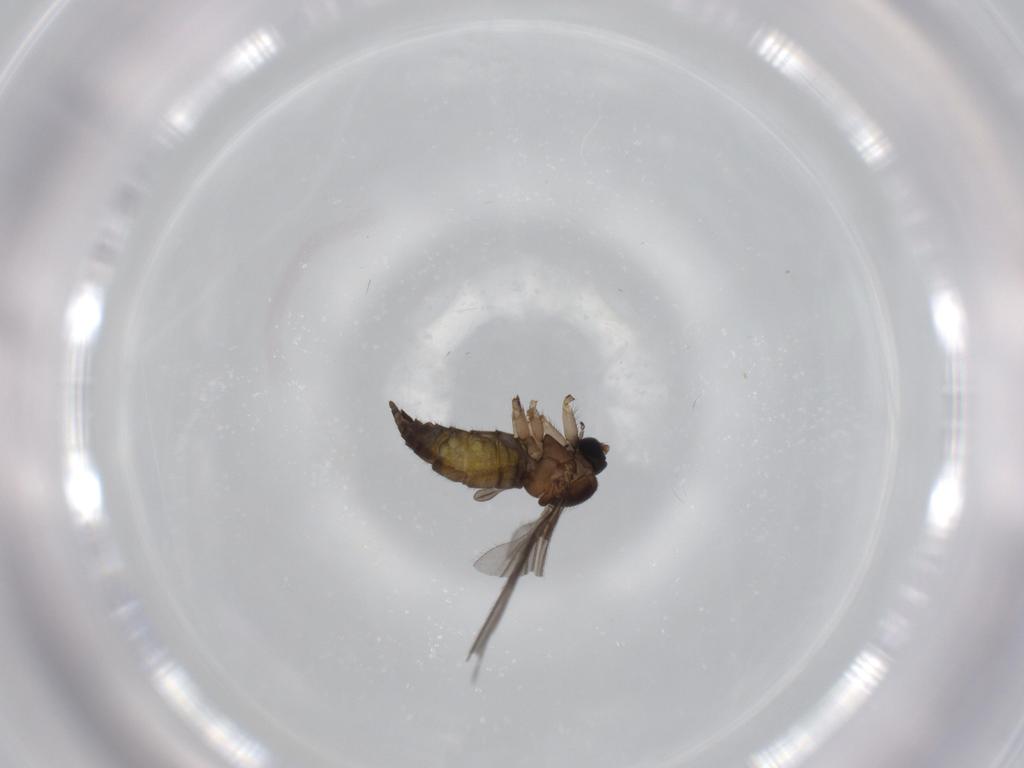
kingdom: Animalia
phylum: Arthropoda
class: Insecta
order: Diptera
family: Sciaridae
